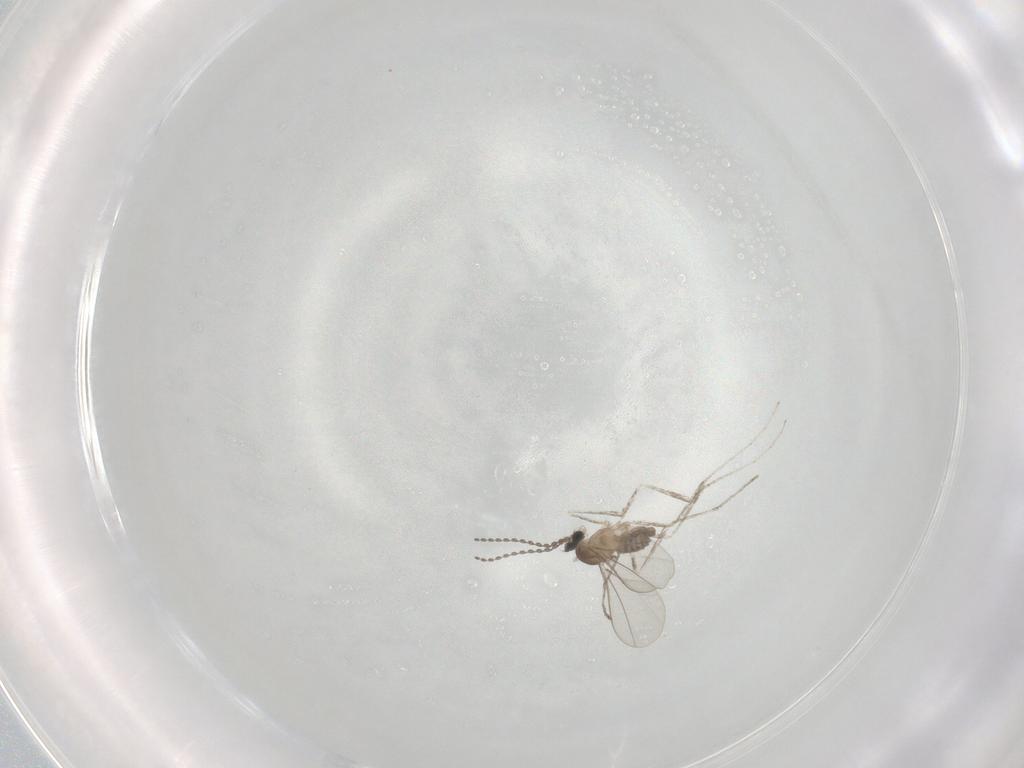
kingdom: Animalia
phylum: Arthropoda
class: Insecta
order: Diptera
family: Cecidomyiidae
